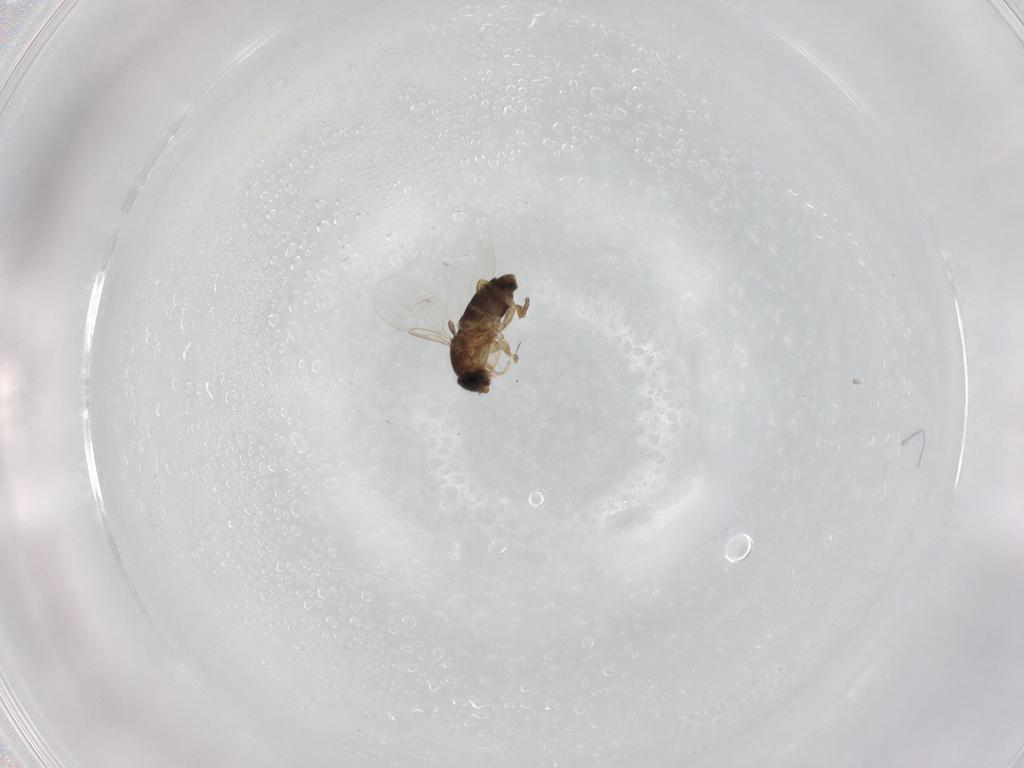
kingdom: Animalia
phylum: Arthropoda
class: Insecta
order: Diptera
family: Phoridae
